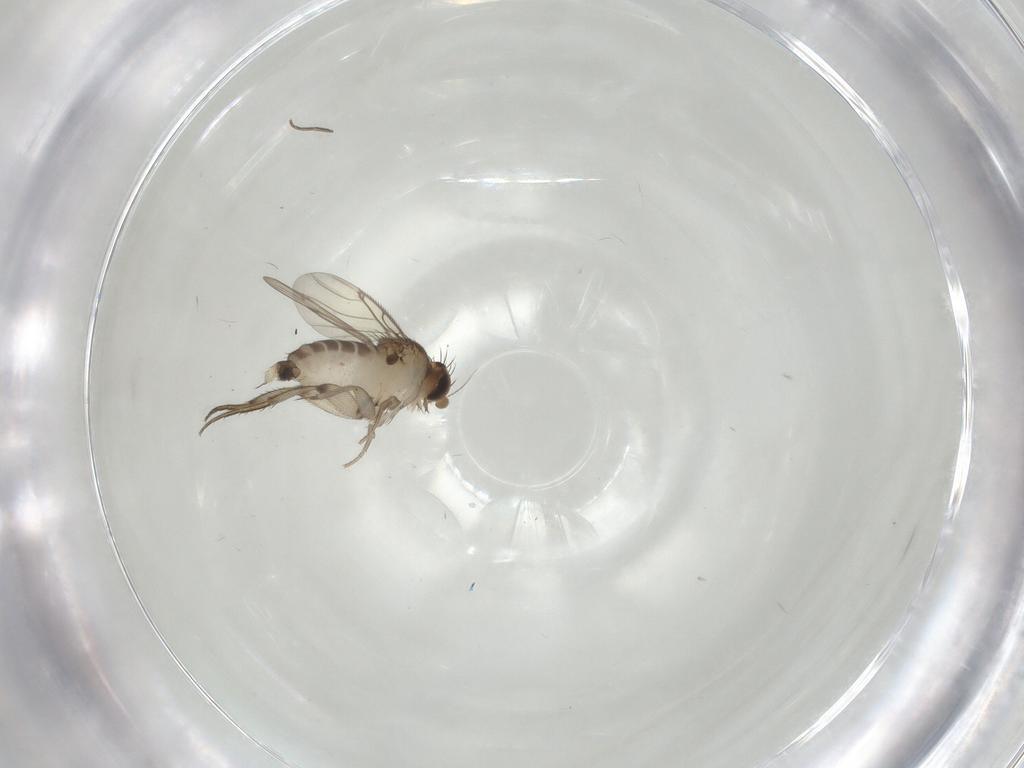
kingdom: Animalia
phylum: Arthropoda
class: Insecta
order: Diptera
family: Phoridae
